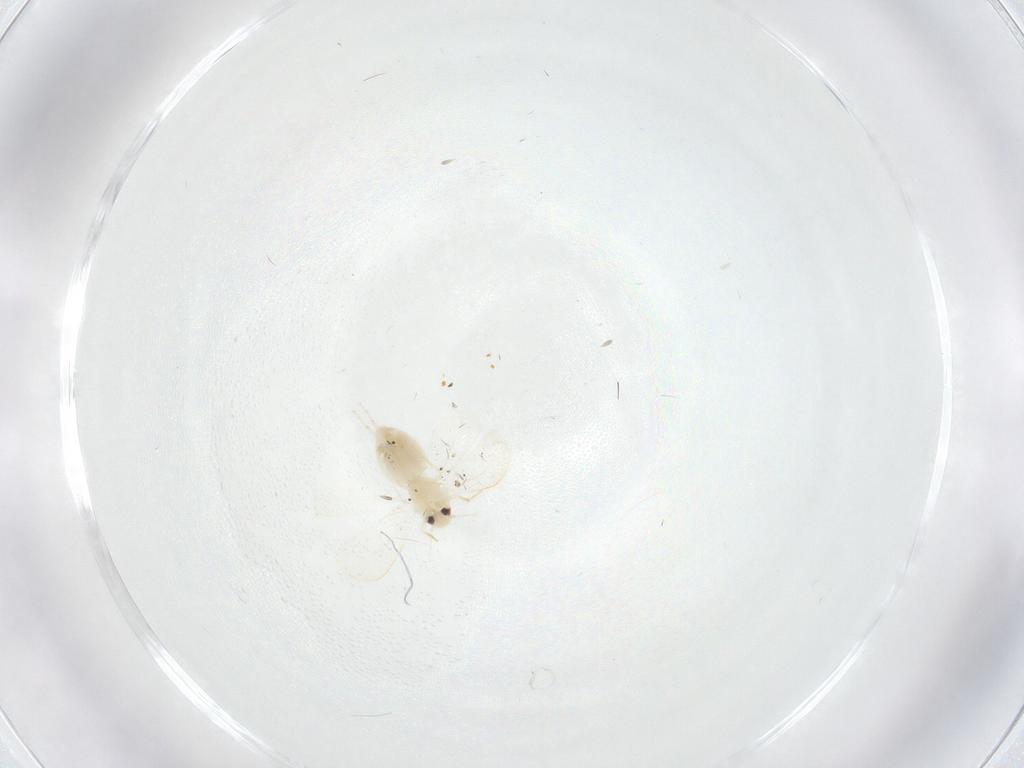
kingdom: Animalia
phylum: Arthropoda
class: Insecta
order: Hemiptera
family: Aleyrodidae
